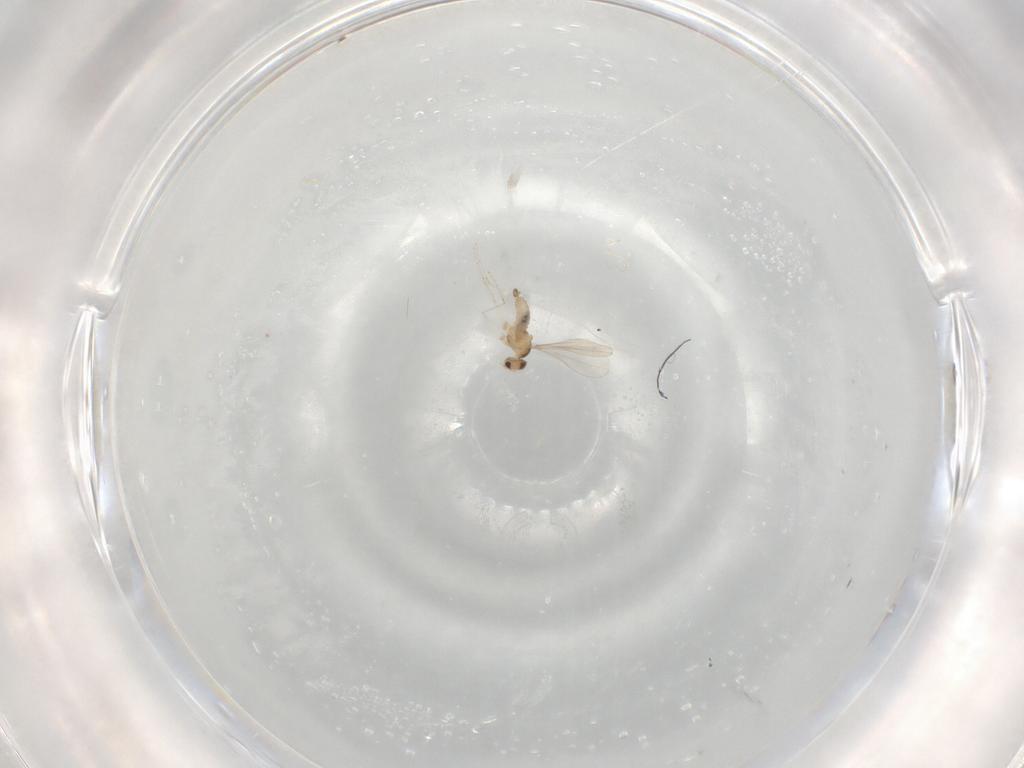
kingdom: Animalia
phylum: Arthropoda
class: Insecta
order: Diptera
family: Cecidomyiidae
